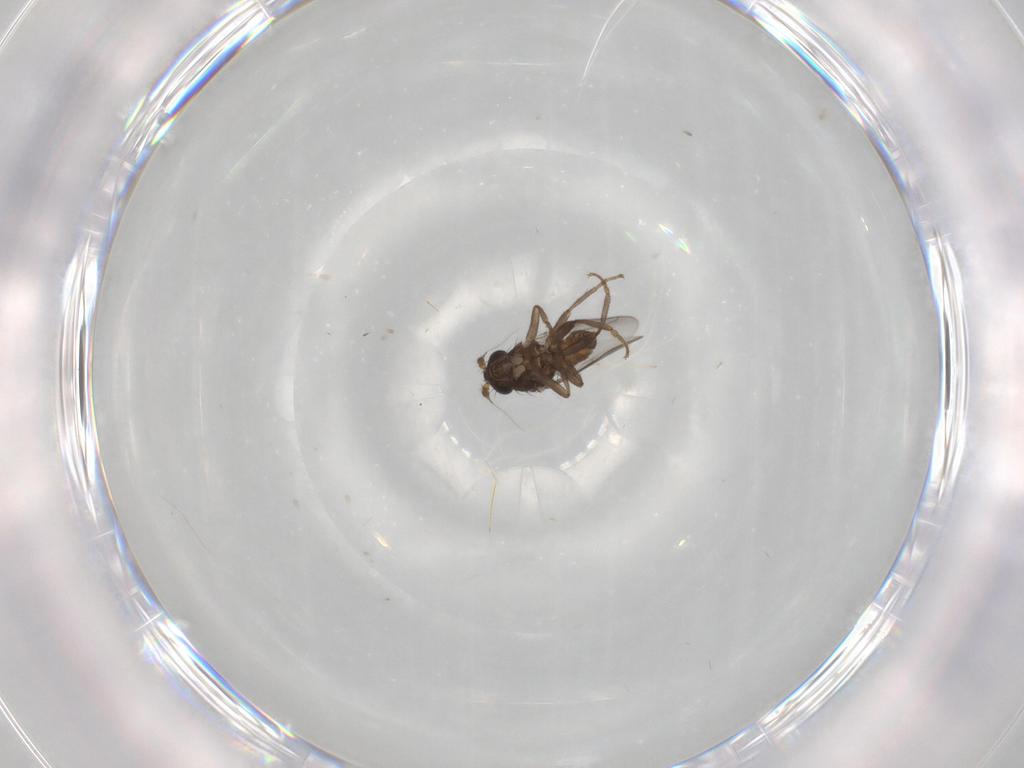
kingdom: Animalia
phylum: Arthropoda
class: Insecta
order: Diptera
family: Sphaeroceridae
